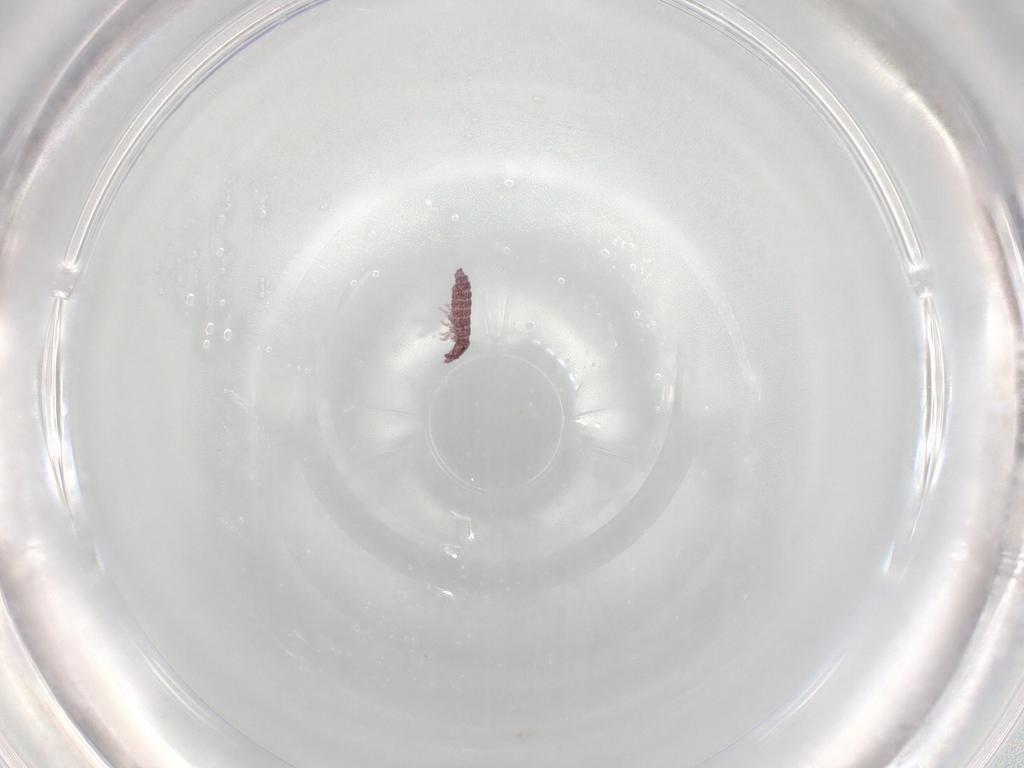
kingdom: Animalia
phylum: Arthropoda
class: Collembola
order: Poduromorpha
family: Hypogastruridae
